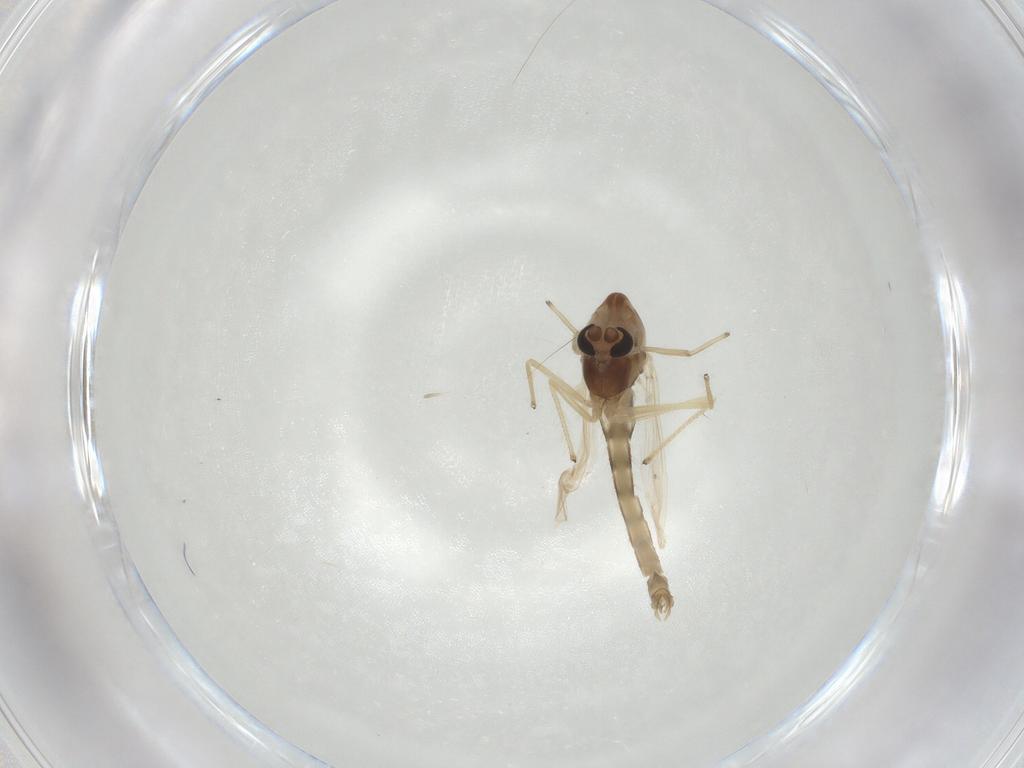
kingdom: Animalia
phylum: Arthropoda
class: Insecta
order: Diptera
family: Chironomidae
